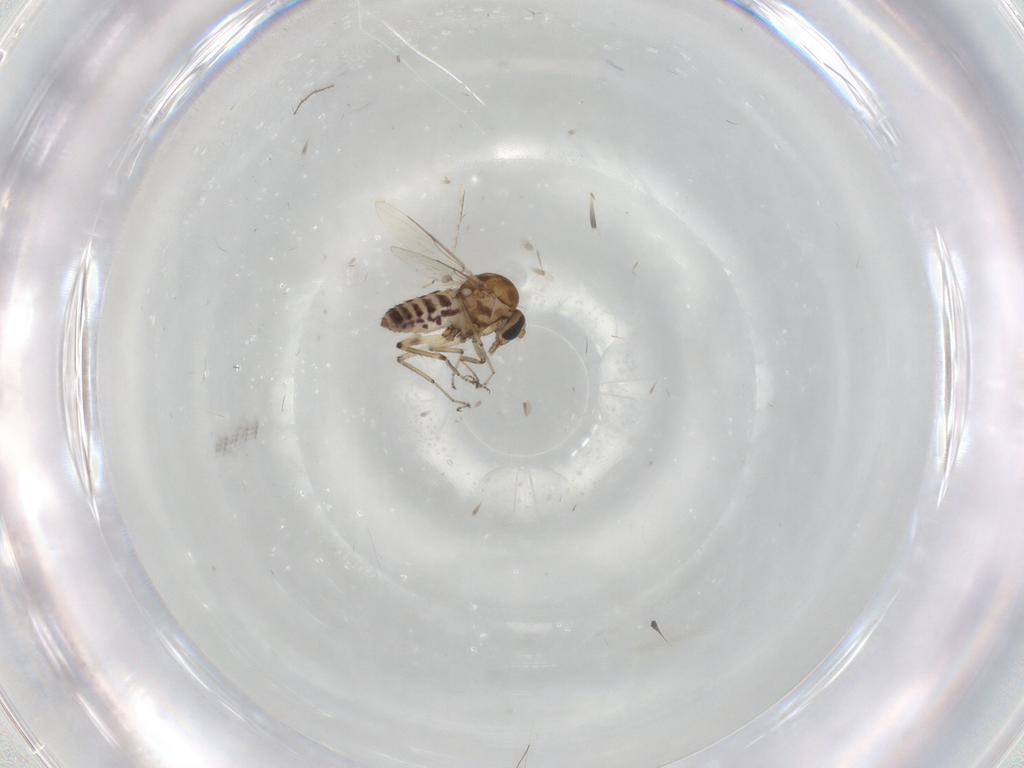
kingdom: Animalia
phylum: Arthropoda
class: Insecta
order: Diptera
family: Ceratopogonidae
